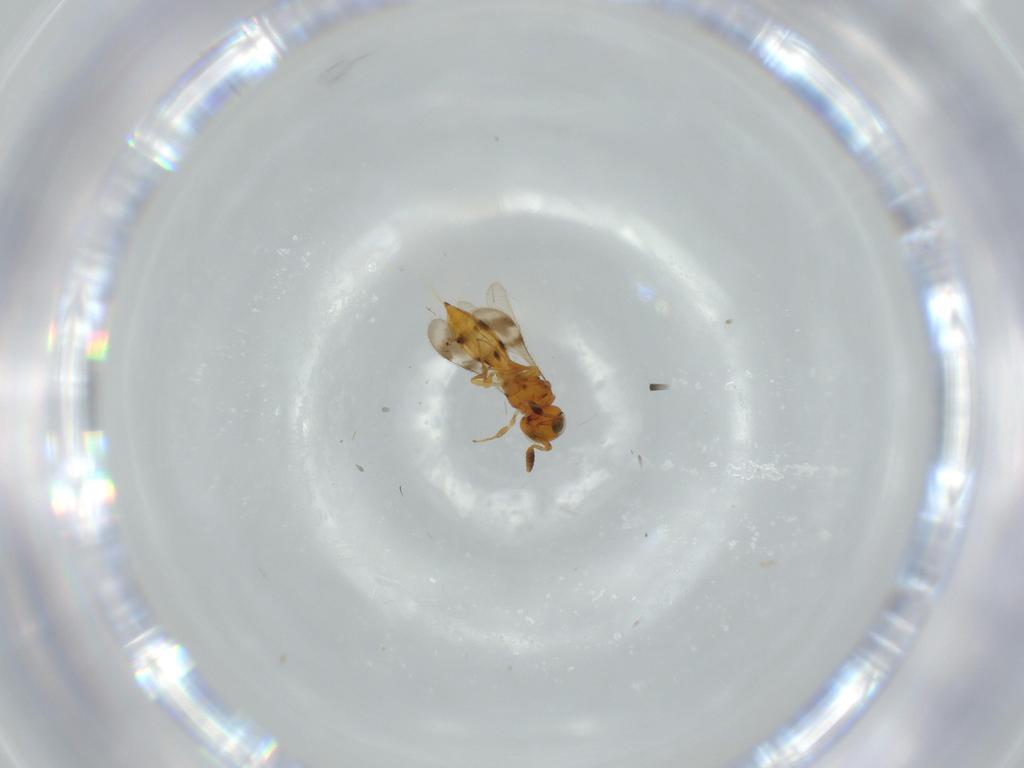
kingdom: Animalia
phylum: Arthropoda
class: Insecta
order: Hymenoptera
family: Scelionidae
